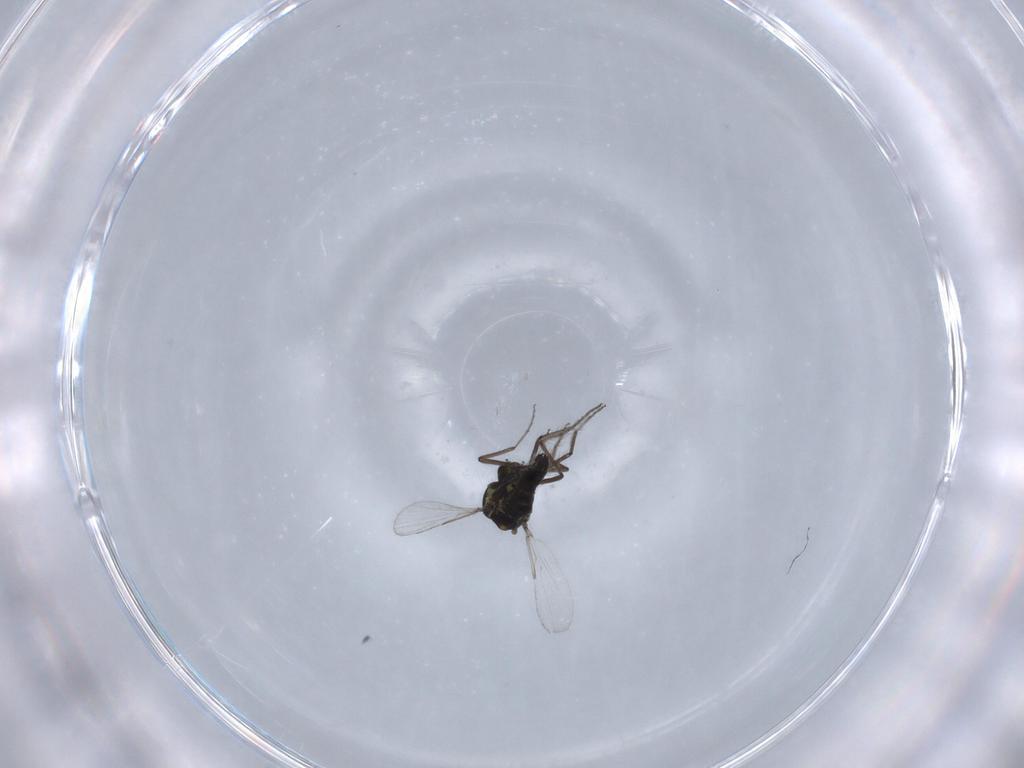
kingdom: Animalia
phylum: Arthropoda
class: Insecta
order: Diptera
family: Ceratopogonidae
